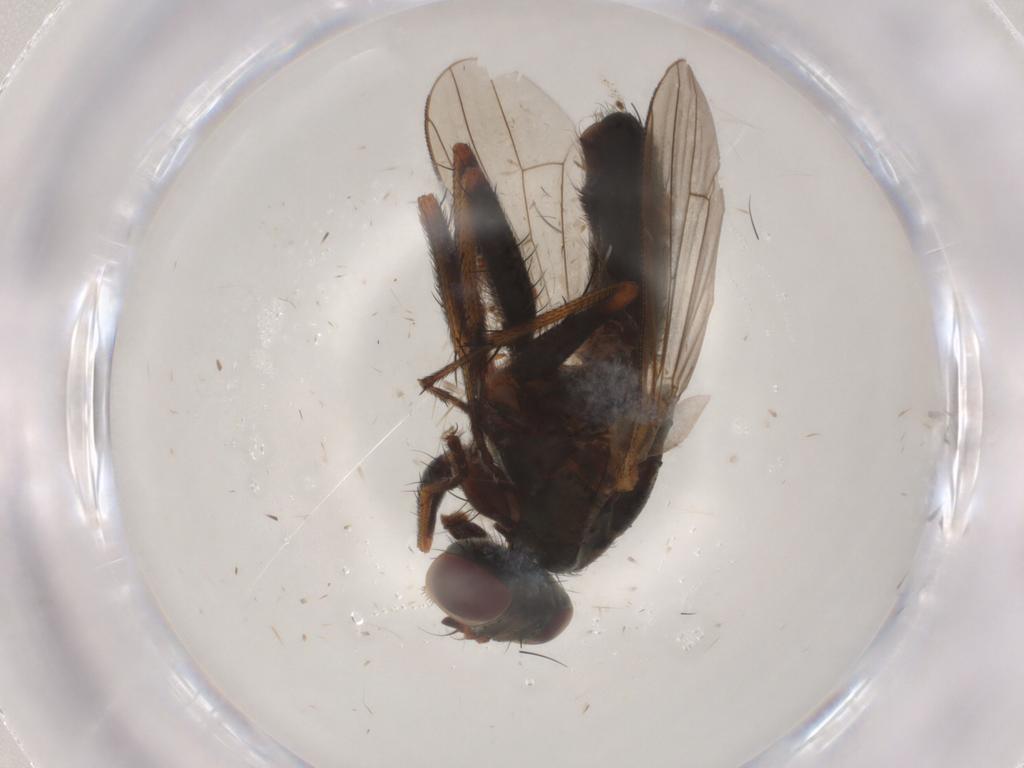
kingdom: Animalia
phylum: Arthropoda
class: Insecta
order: Diptera
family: Muscidae
